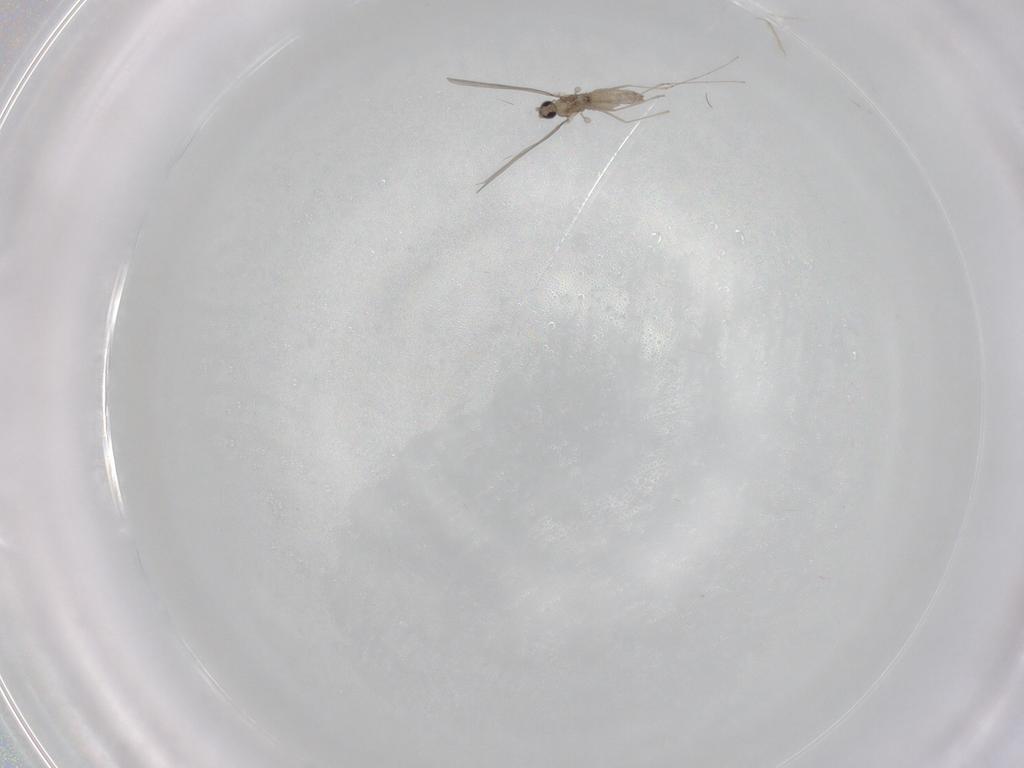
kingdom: Animalia
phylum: Arthropoda
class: Insecta
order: Diptera
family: Cecidomyiidae
